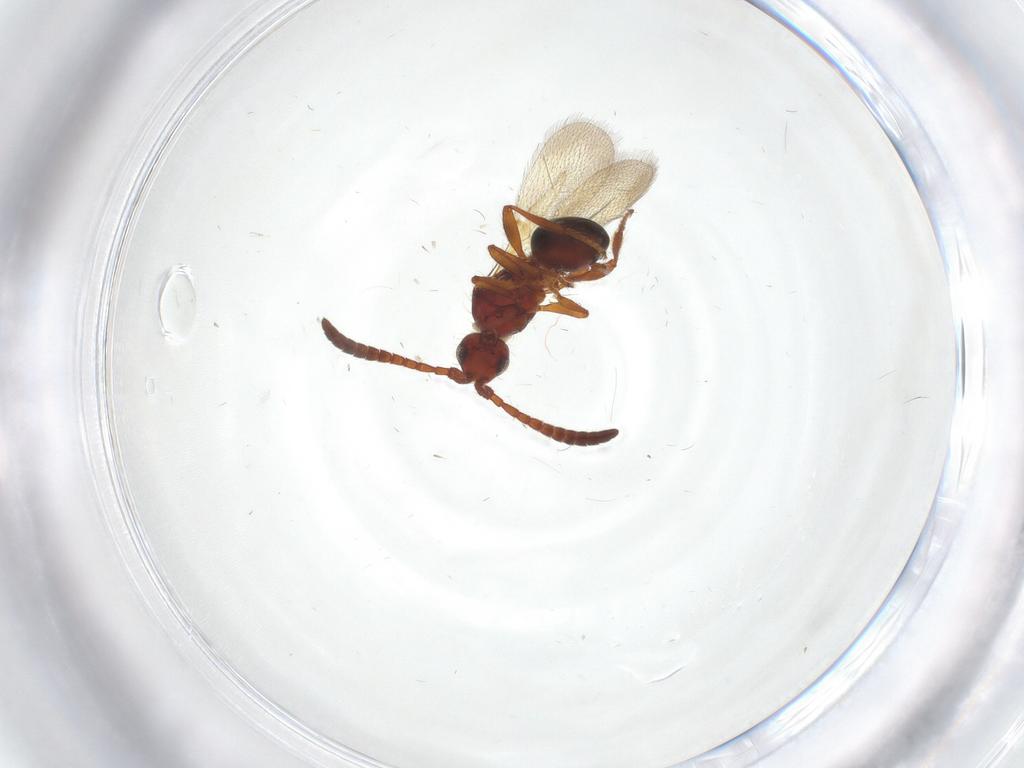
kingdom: Animalia
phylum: Arthropoda
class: Insecta
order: Hymenoptera
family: Diapriidae
